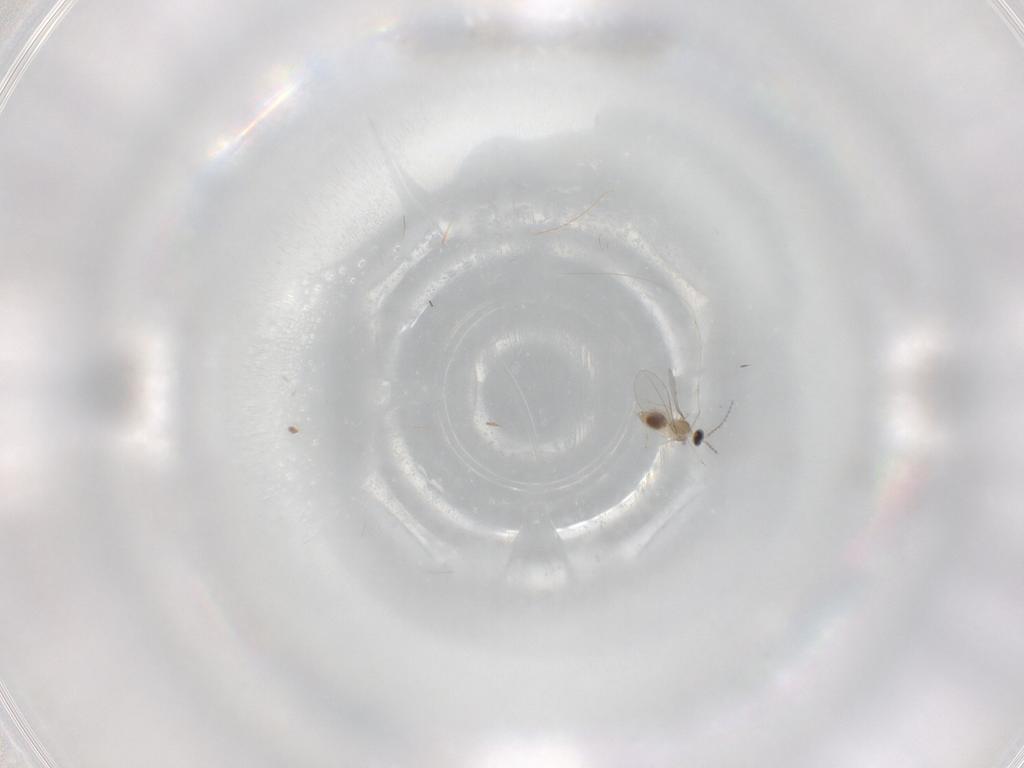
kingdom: Animalia
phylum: Arthropoda
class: Insecta
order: Diptera
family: Cecidomyiidae
